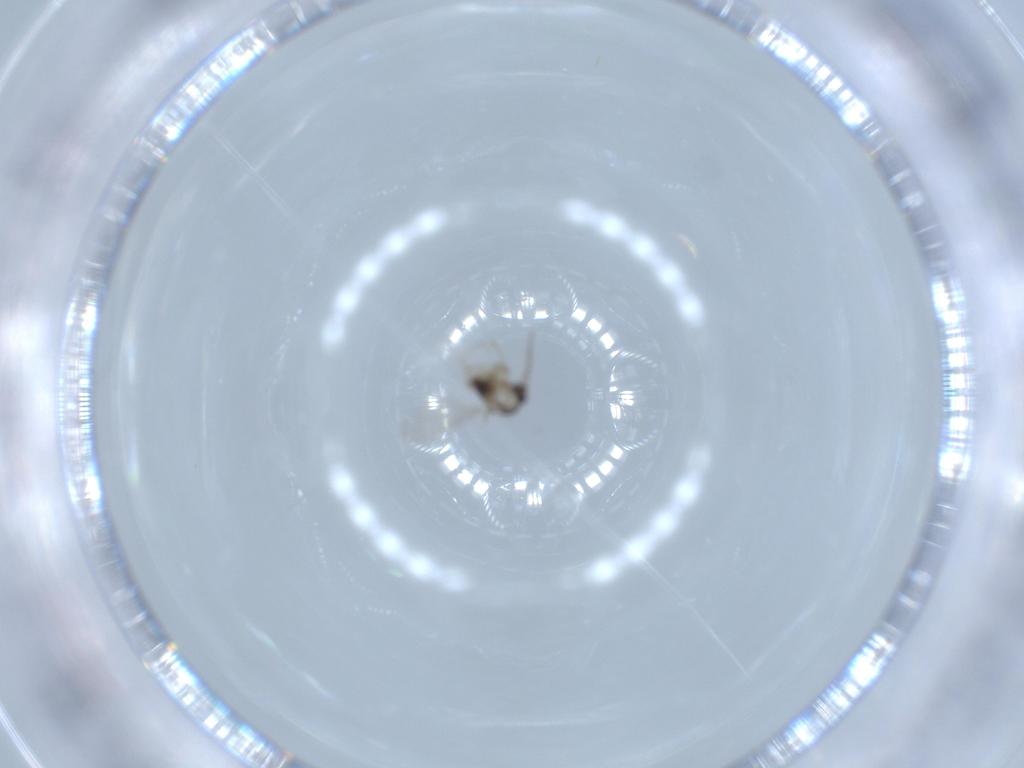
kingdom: Animalia
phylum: Arthropoda
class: Insecta
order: Diptera
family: Cecidomyiidae
